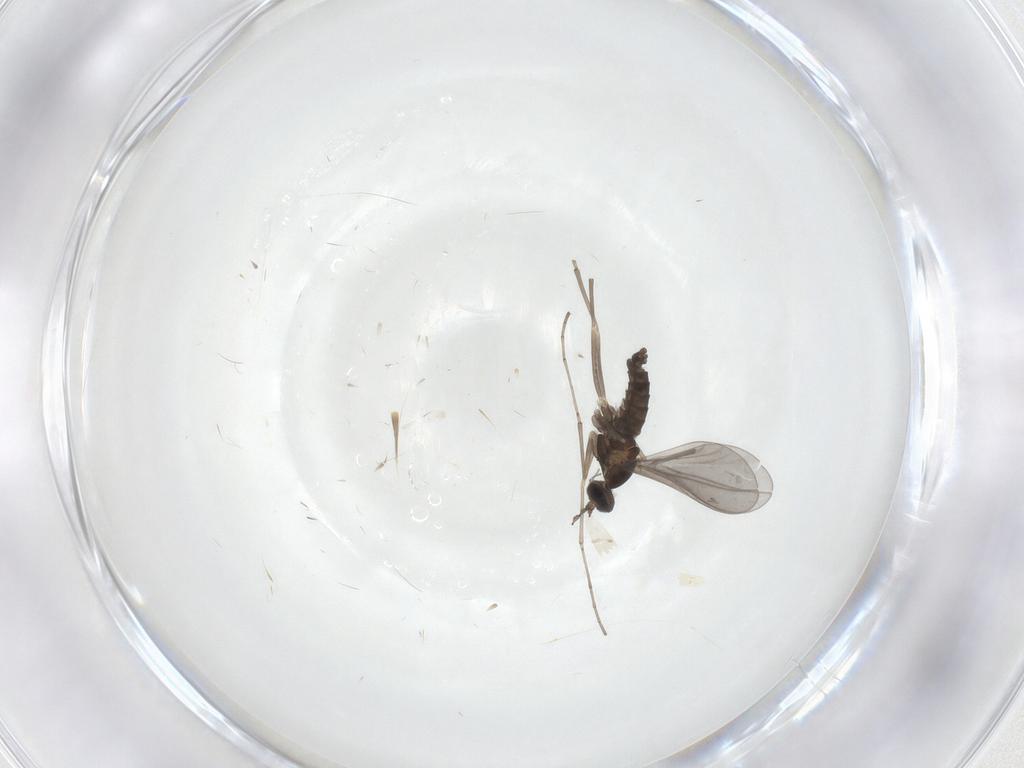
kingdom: Animalia
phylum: Arthropoda
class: Insecta
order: Diptera
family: Cecidomyiidae
